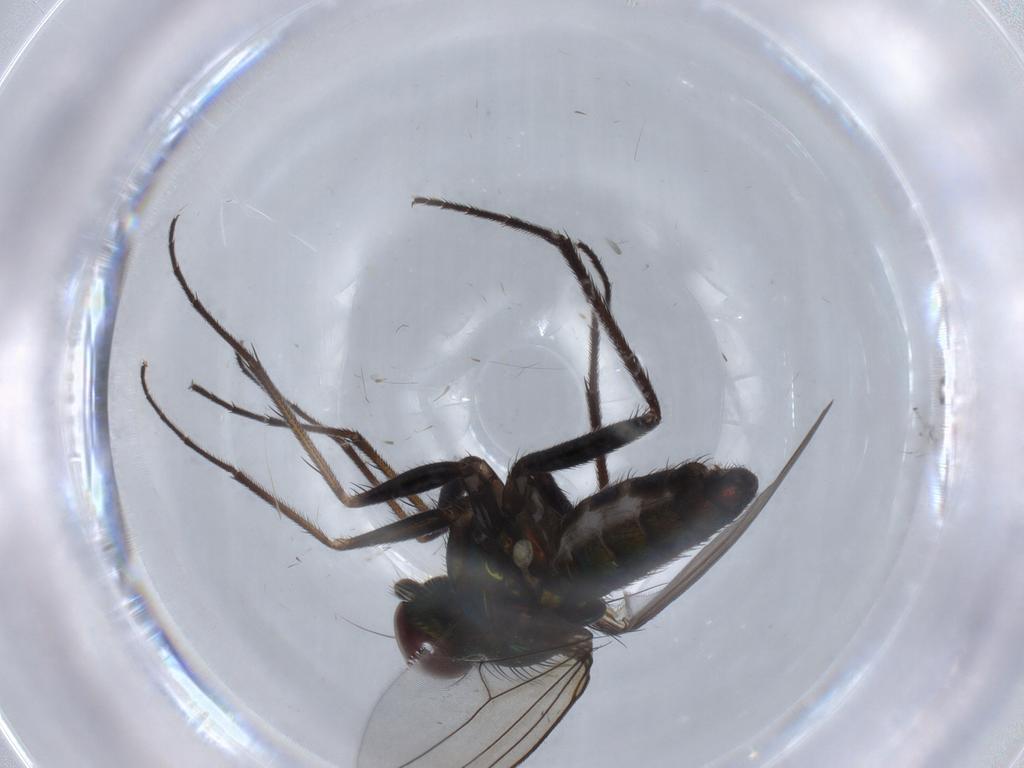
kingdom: Animalia
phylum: Arthropoda
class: Insecta
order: Diptera
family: Dolichopodidae
